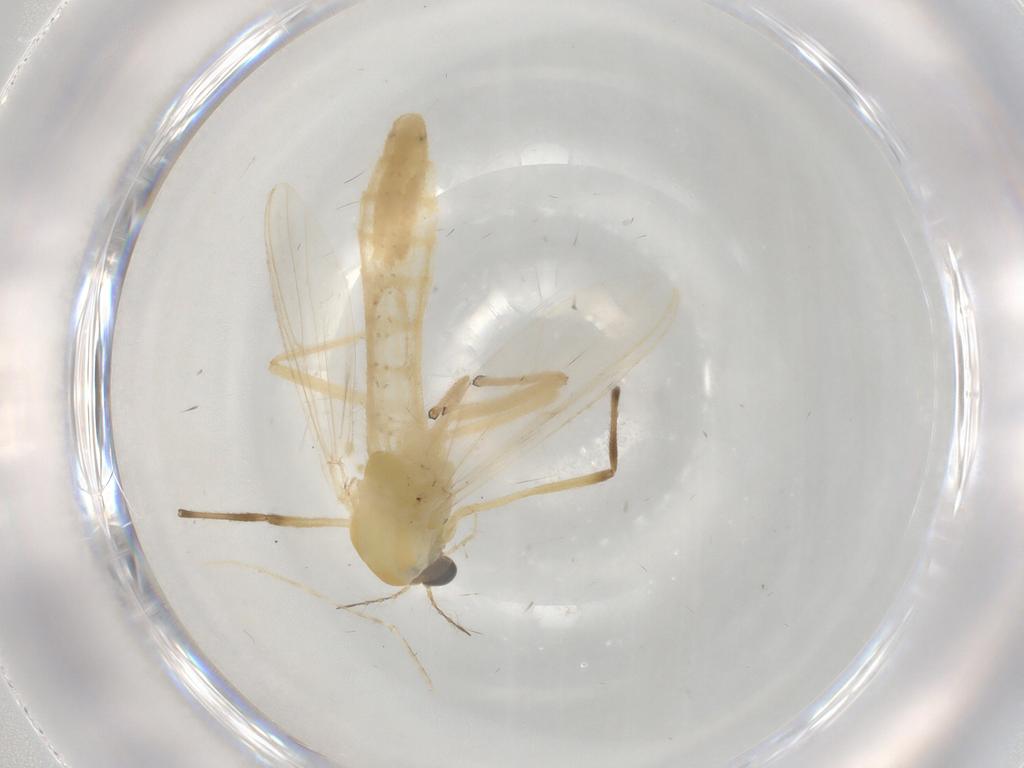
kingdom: Animalia
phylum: Arthropoda
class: Insecta
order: Diptera
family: Chironomidae
